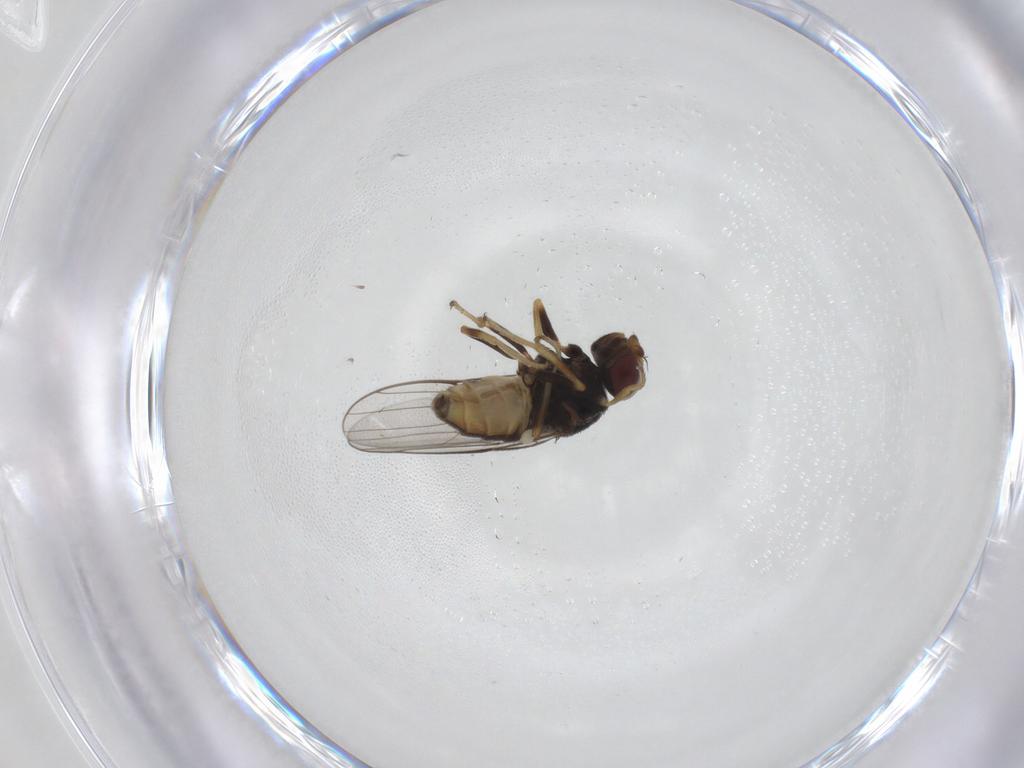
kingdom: Animalia
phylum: Arthropoda
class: Insecta
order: Diptera
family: Chloropidae
